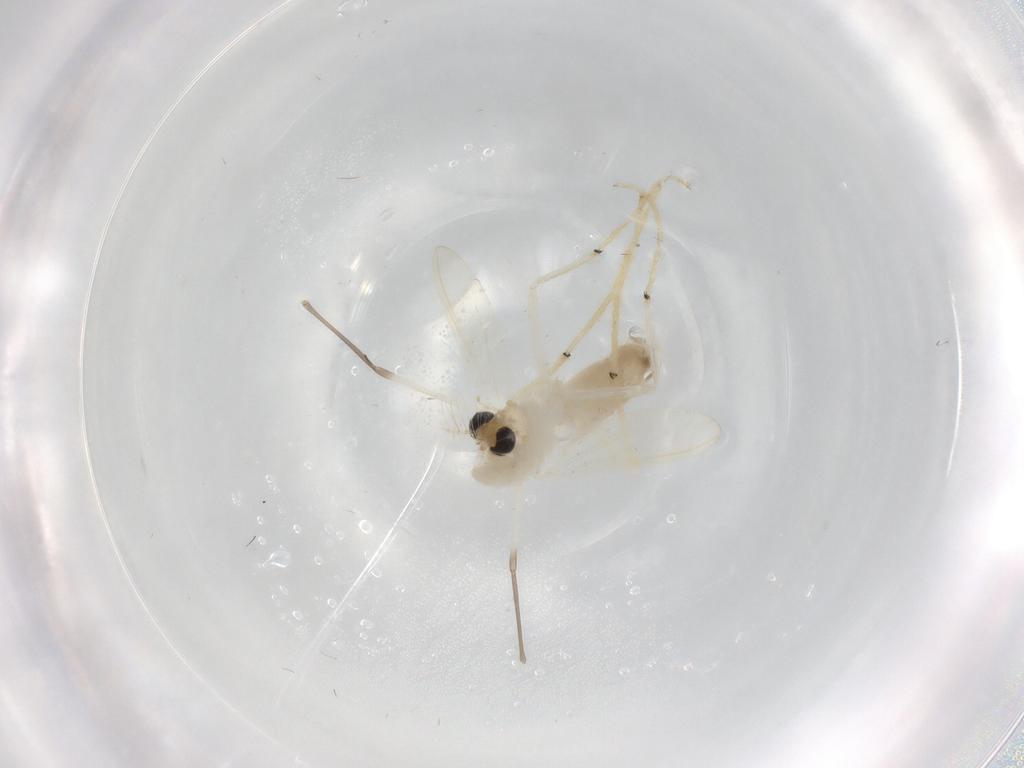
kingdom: Animalia
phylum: Arthropoda
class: Insecta
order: Diptera
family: Chironomidae
